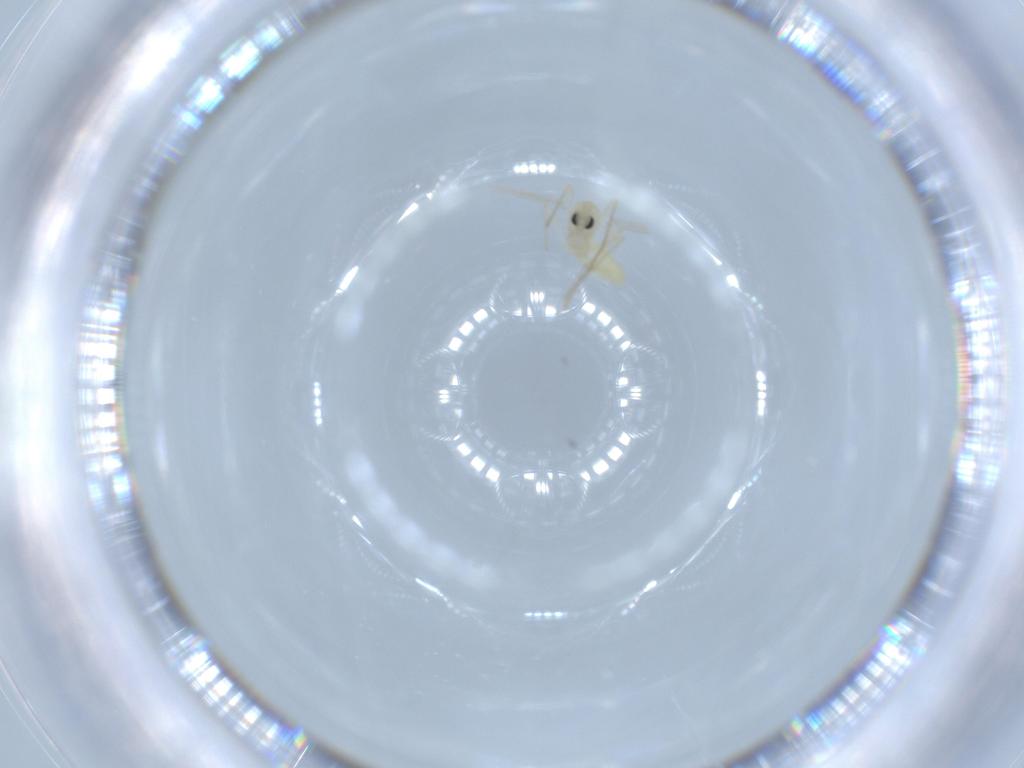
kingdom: Animalia
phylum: Arthropoda
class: Insecta
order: Diptera
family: Chironomidae
